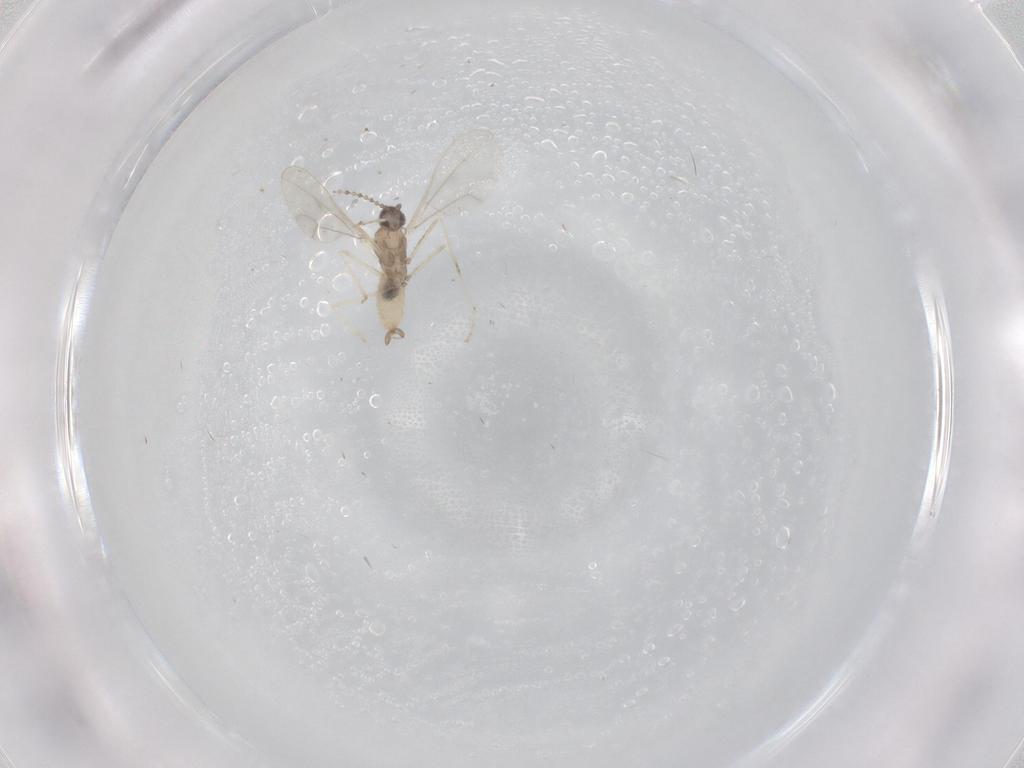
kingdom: Animalia
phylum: Arthropoda
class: Insecta
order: Diptera
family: Cecidomyiidae
